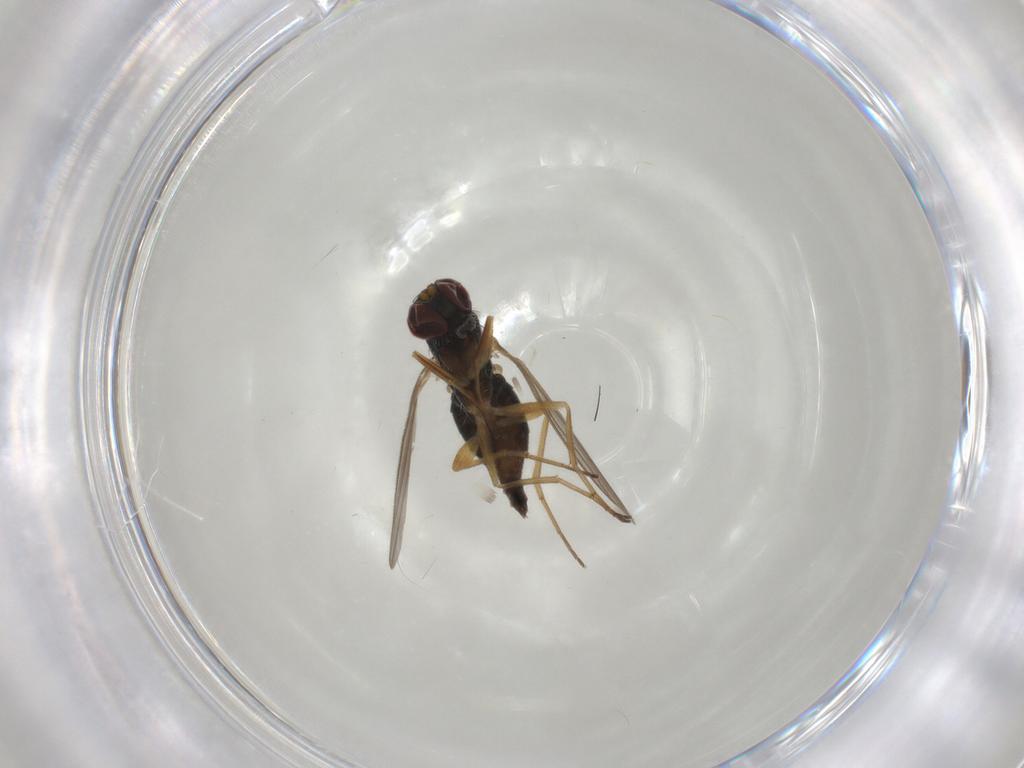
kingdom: Animalia
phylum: Arthropoda
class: Insecta
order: Diptera
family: Dolichopodidae
